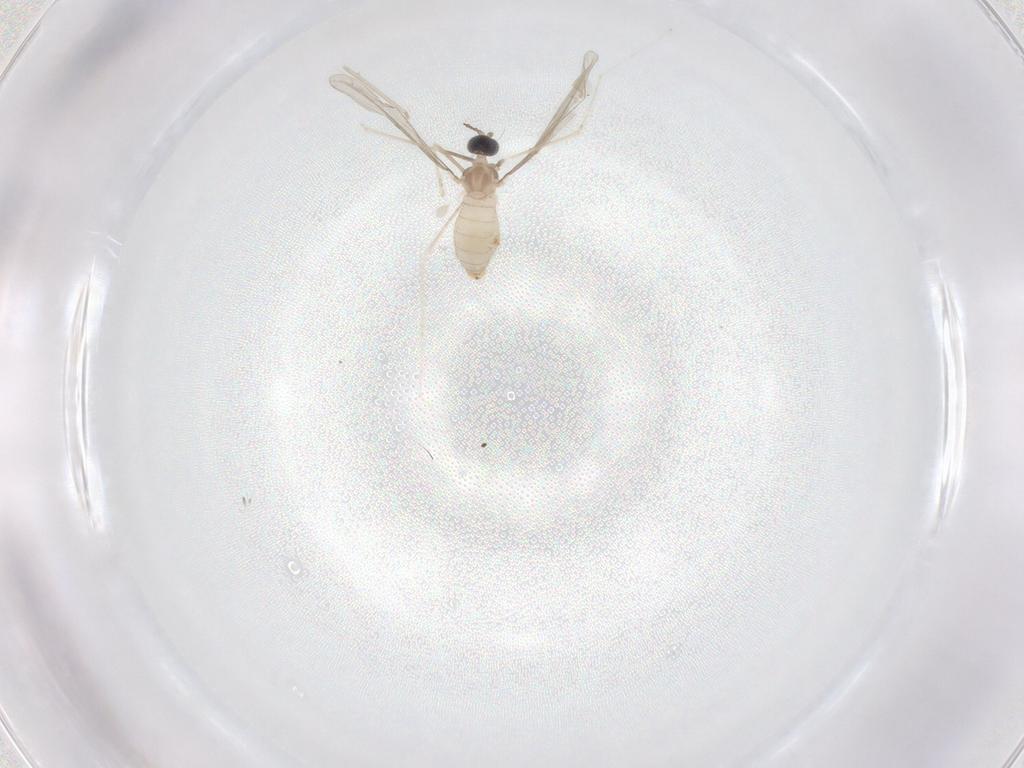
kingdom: Animalia
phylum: Arthropoda
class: Insecta
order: Diptera
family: Cecidomyiidae
